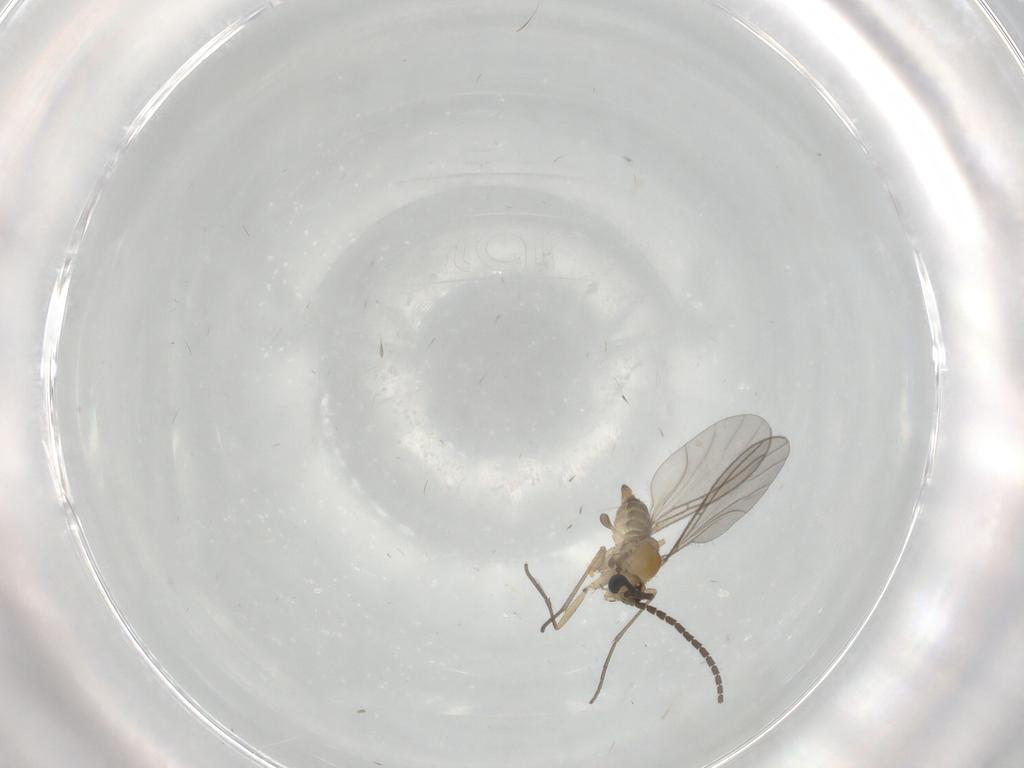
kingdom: Animalia
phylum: Arthropoda
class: Insecta
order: Diptera
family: Sciaridae
